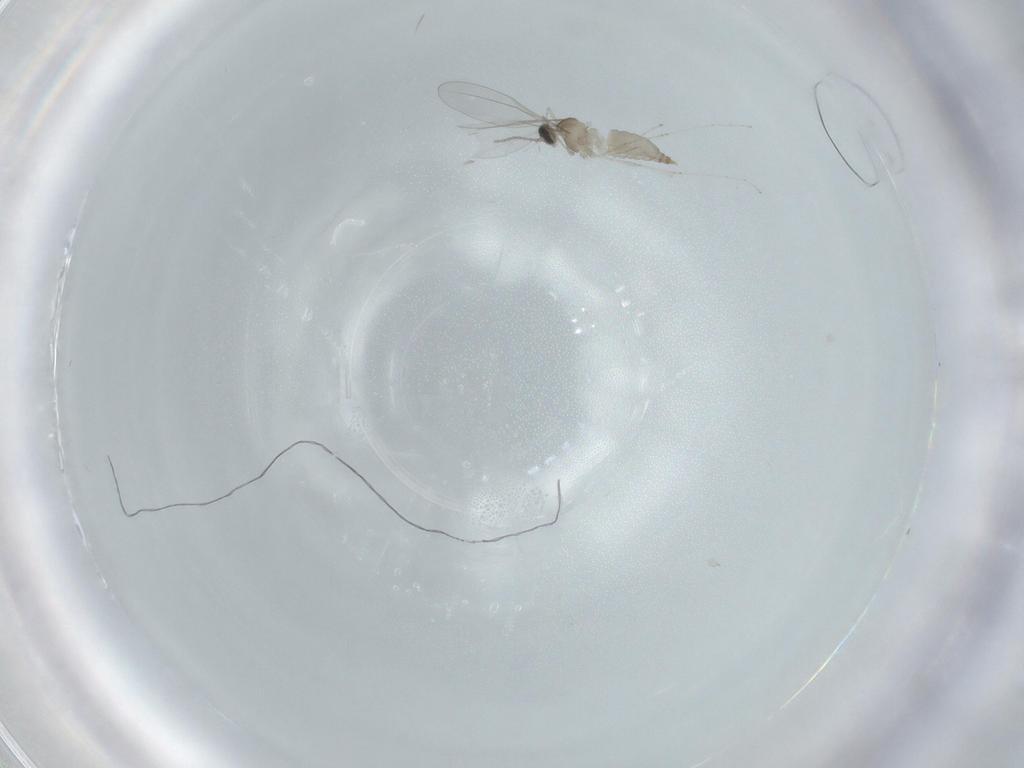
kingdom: Animalia
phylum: Arthropoda
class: Insecta
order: Diptera
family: Cecidomyiidae
